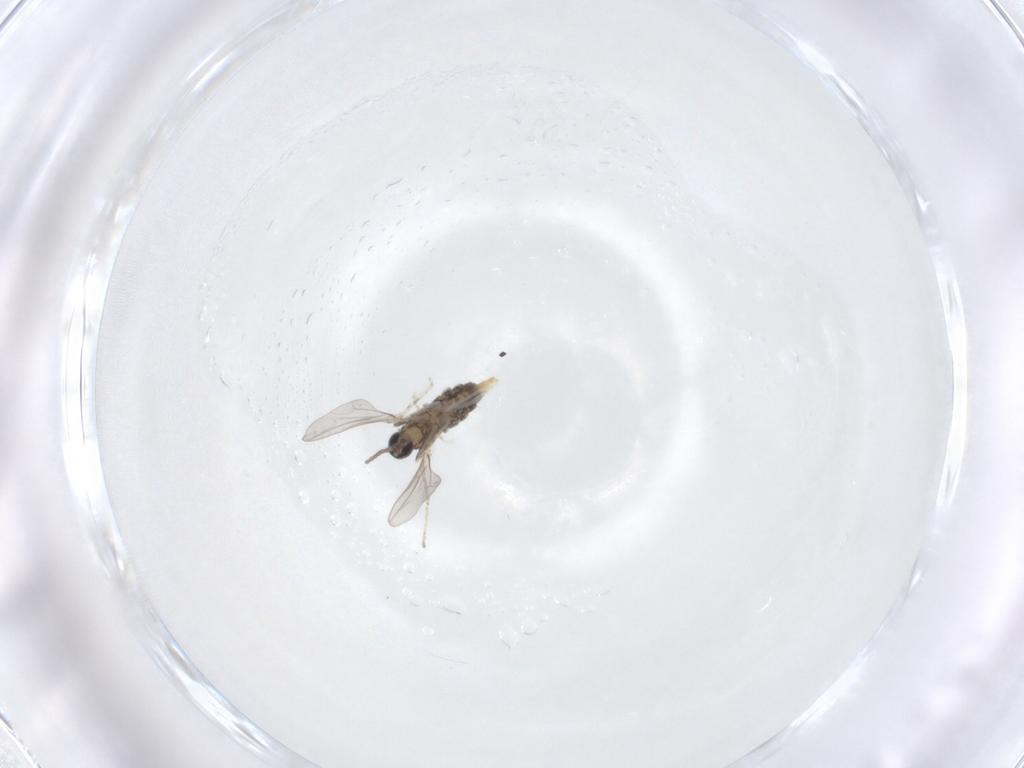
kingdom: Animalia
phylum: Arthropoda
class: Insecta
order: Diptera
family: Cecidomyiidae
